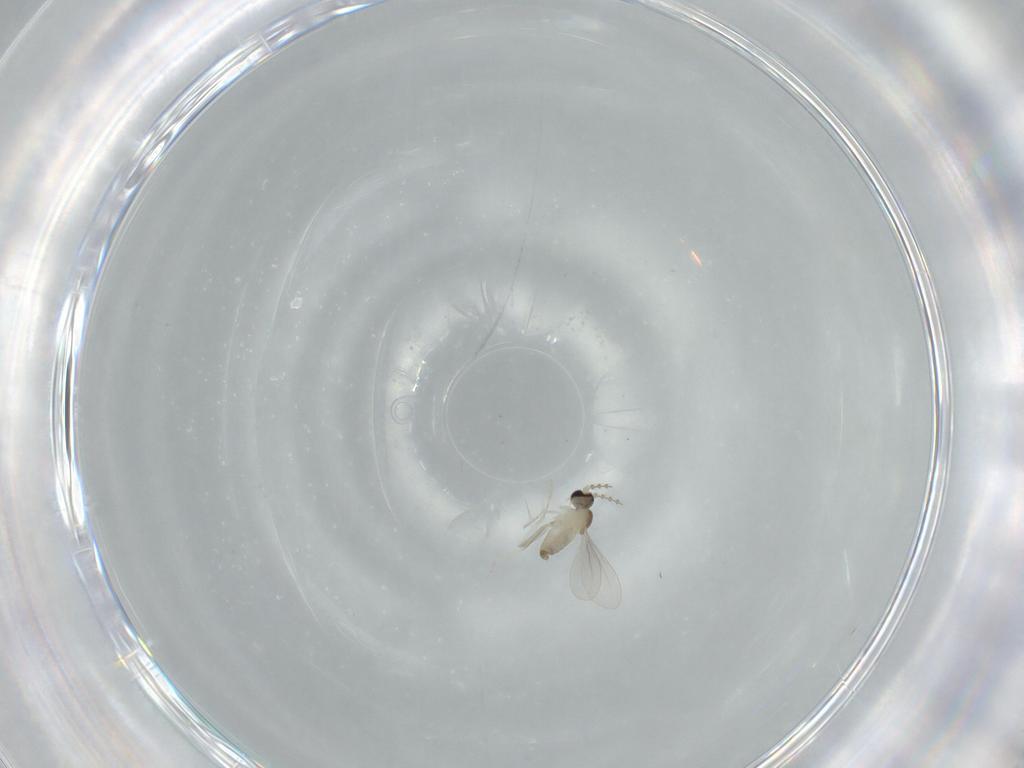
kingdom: Animalia
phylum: Arthropoda
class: Insecta
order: Diptera
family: Cecidomyiidae
